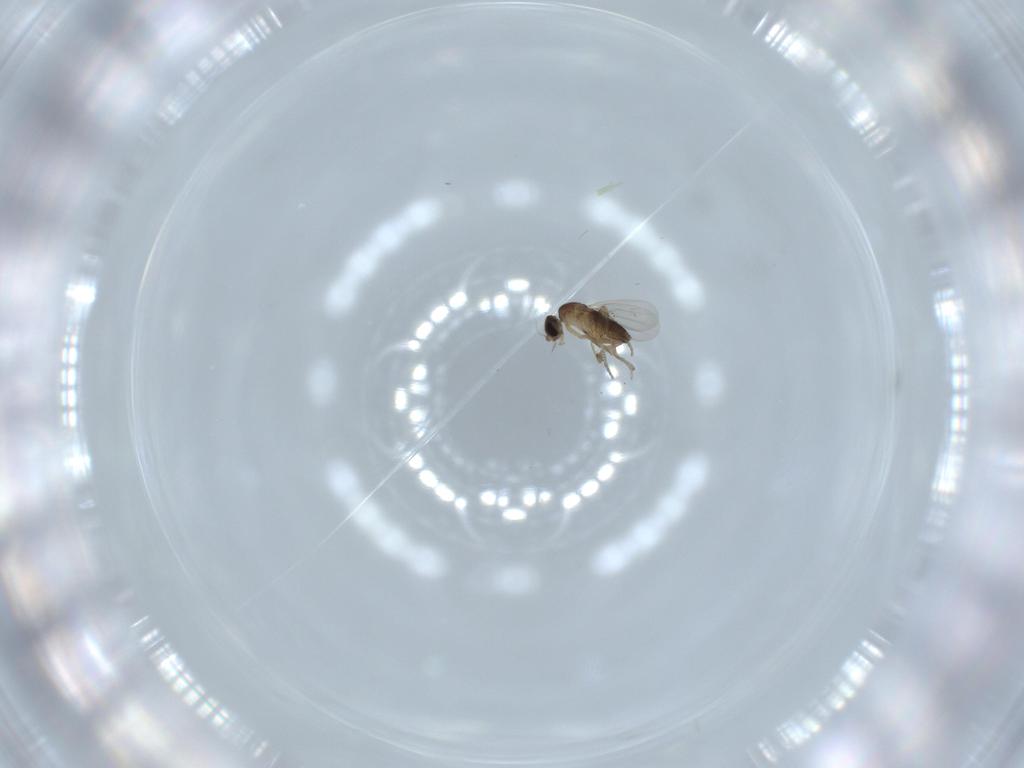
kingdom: Animalia
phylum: Arthropoda
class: Insecta
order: Diptera
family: Phoridae
